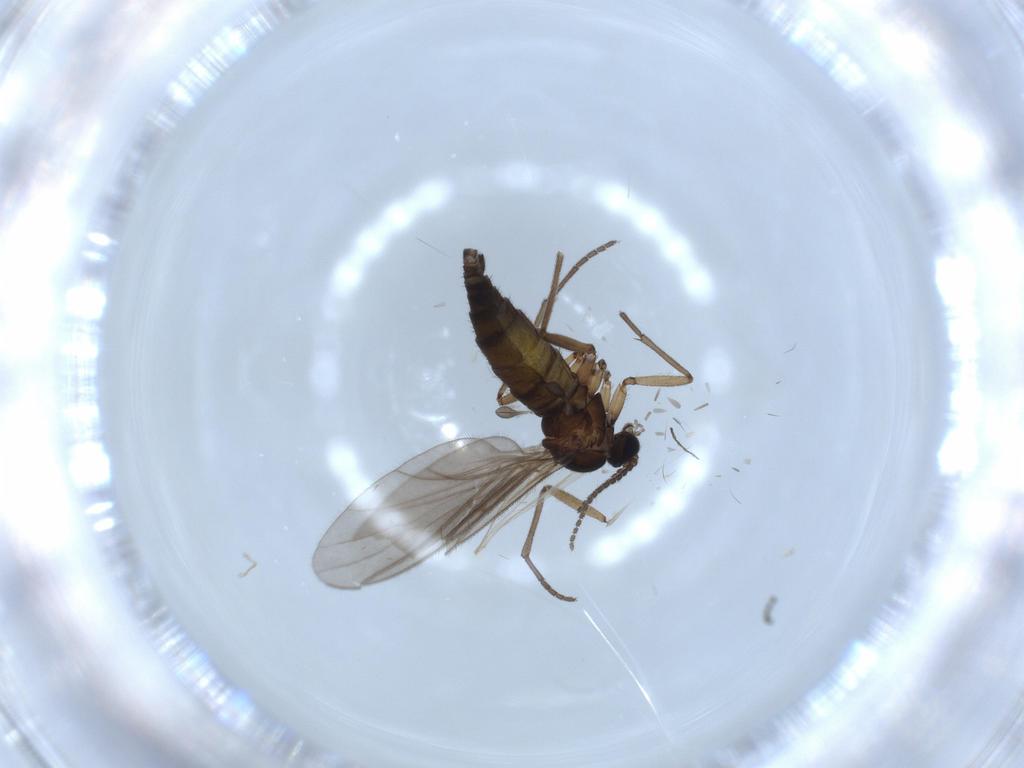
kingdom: Animalia
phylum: Arthropoda
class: Insecta
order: Diptera
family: Sciaridae
